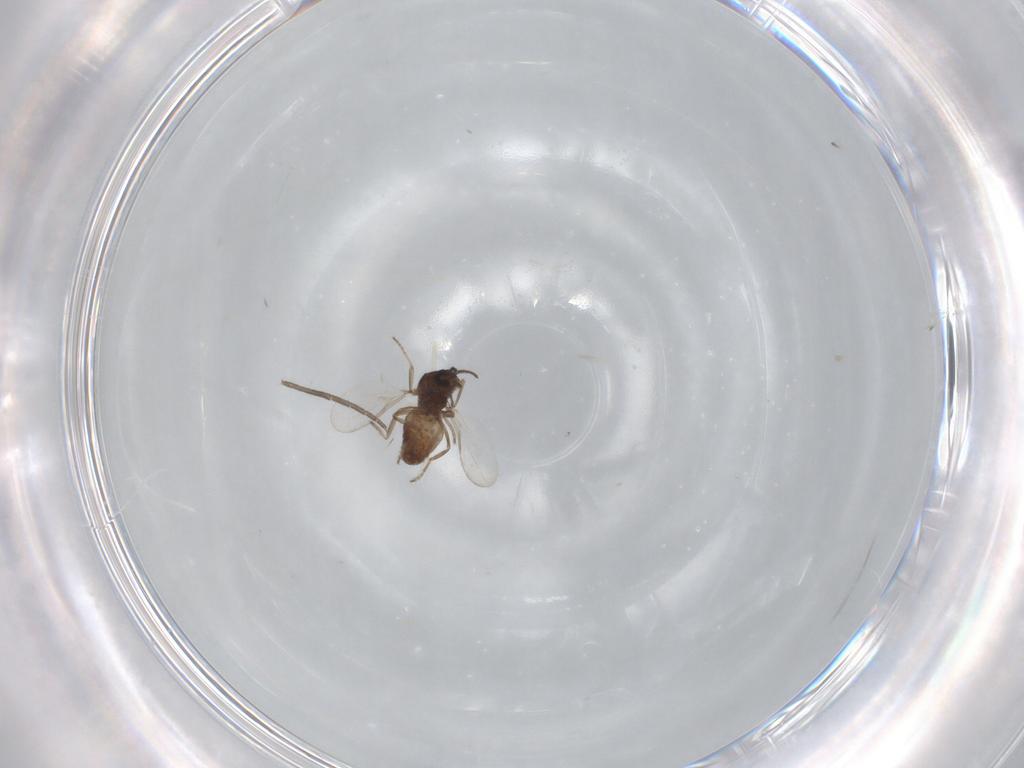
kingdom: Animalia
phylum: Arthropoda
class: Insecta
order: Diptera
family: Ceratopogonidae
